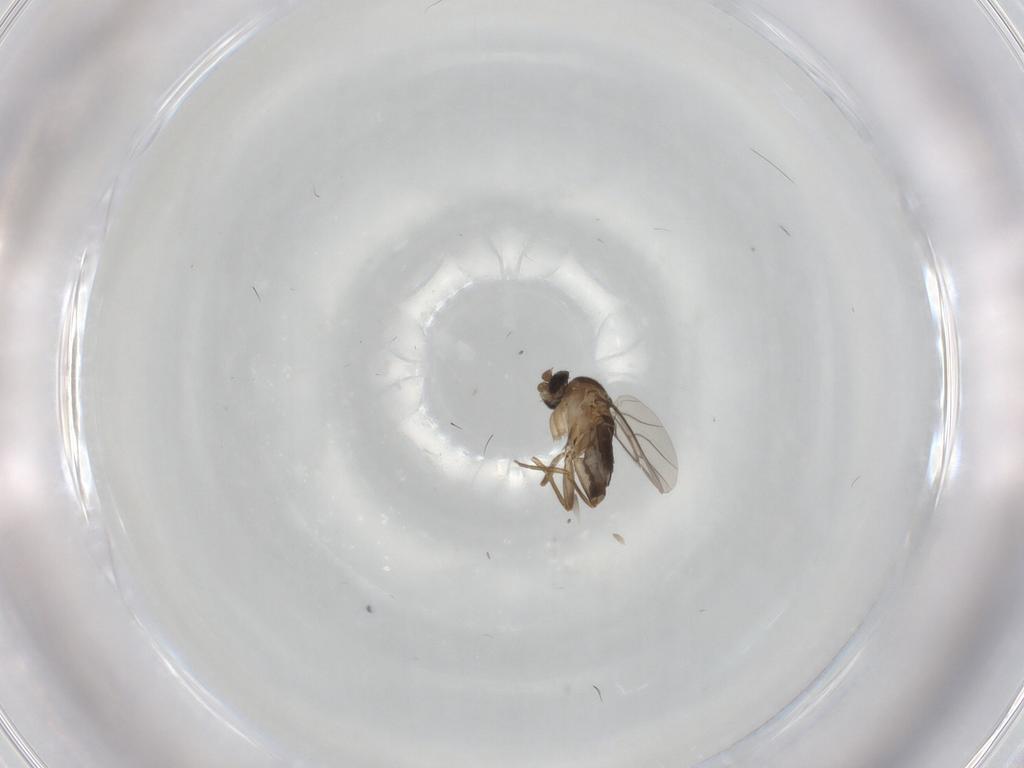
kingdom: Animalia
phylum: Arthropoda
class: Insecta
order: Diptera
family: Phoridae
